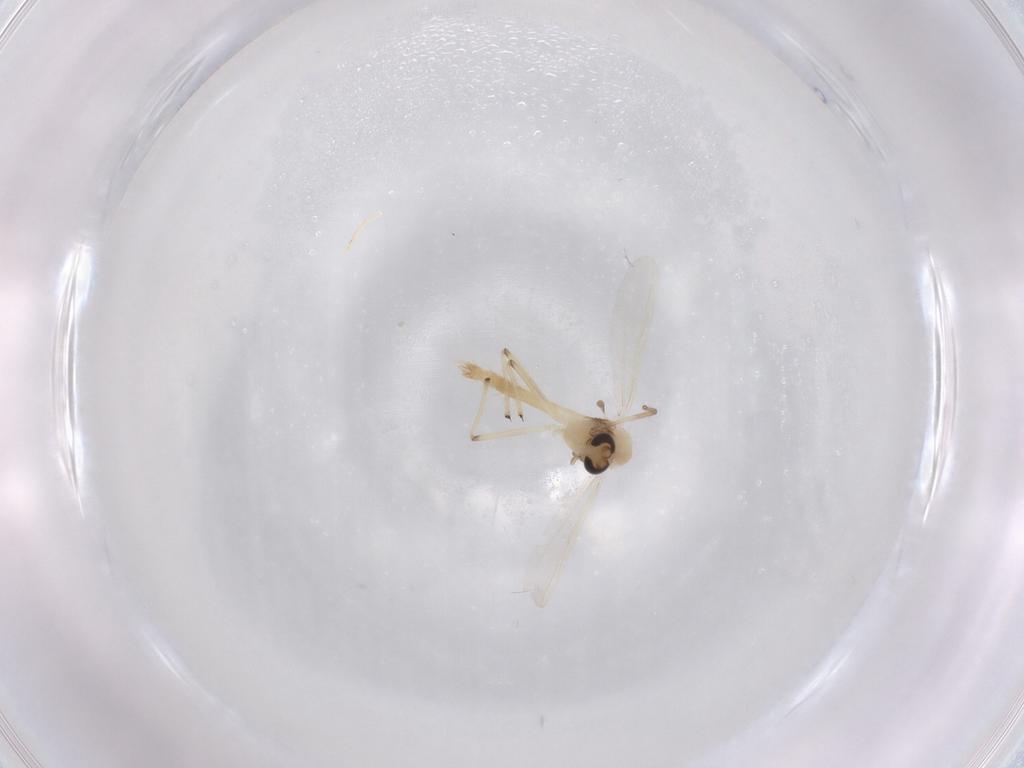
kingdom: Animalia
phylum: Arthropoda
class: Insecta
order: Diptera
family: Chironomidae
